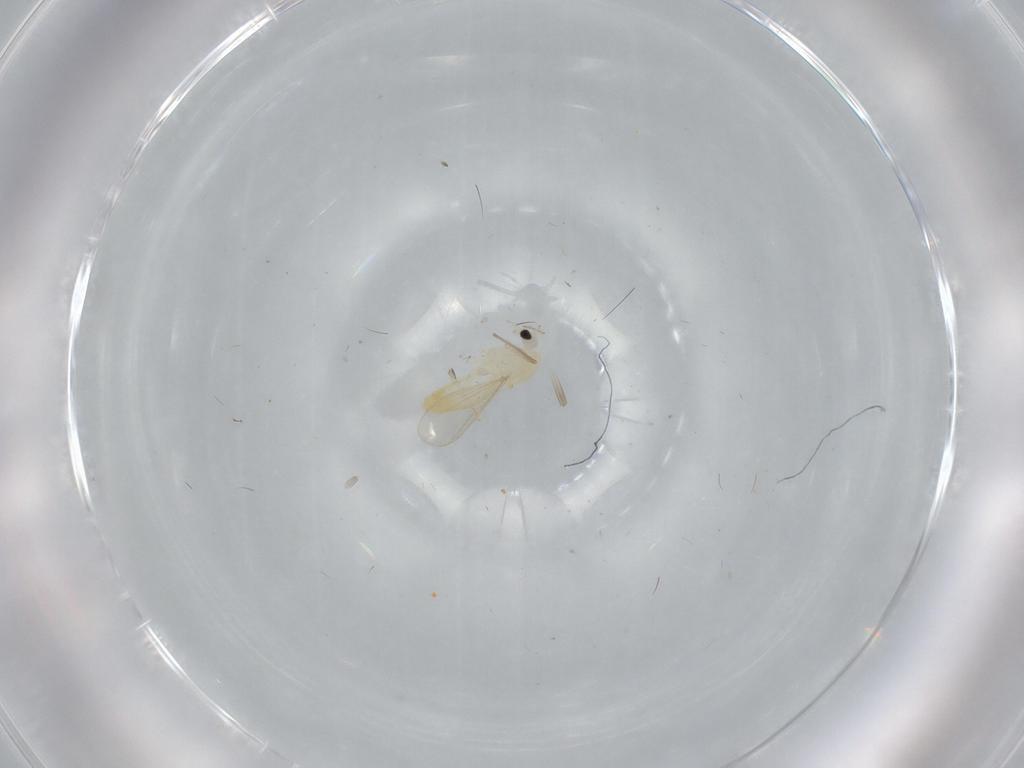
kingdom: Animalia
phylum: Arthropoda
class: Insecta
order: Diptera
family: Chironomidae
